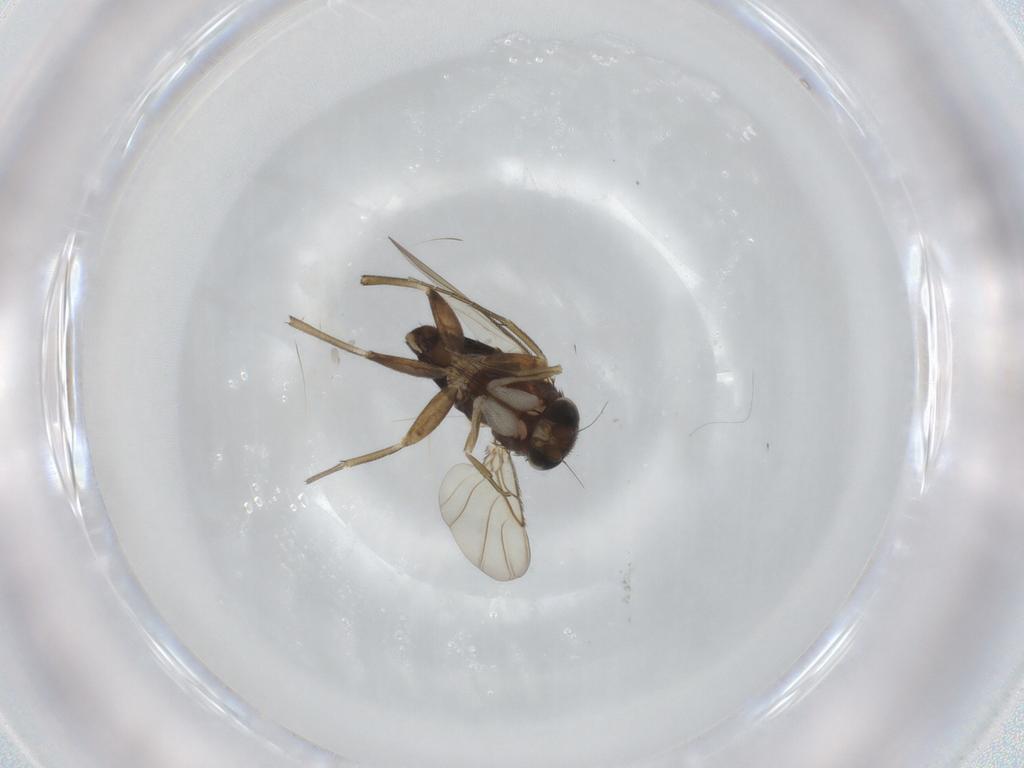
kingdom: Animalia
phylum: Arthropoda
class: Insecta
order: Diptera
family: Phoridae
